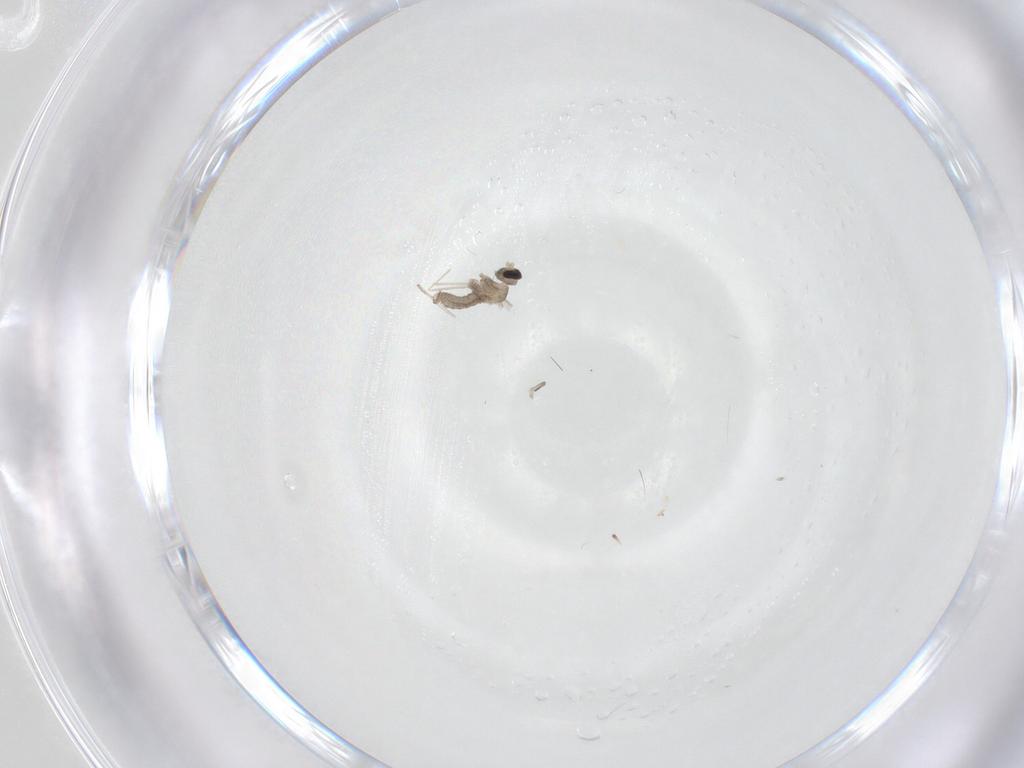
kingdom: Animalia
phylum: Arthropoda
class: Insecta
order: Diptera
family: Cecidomyiidae
